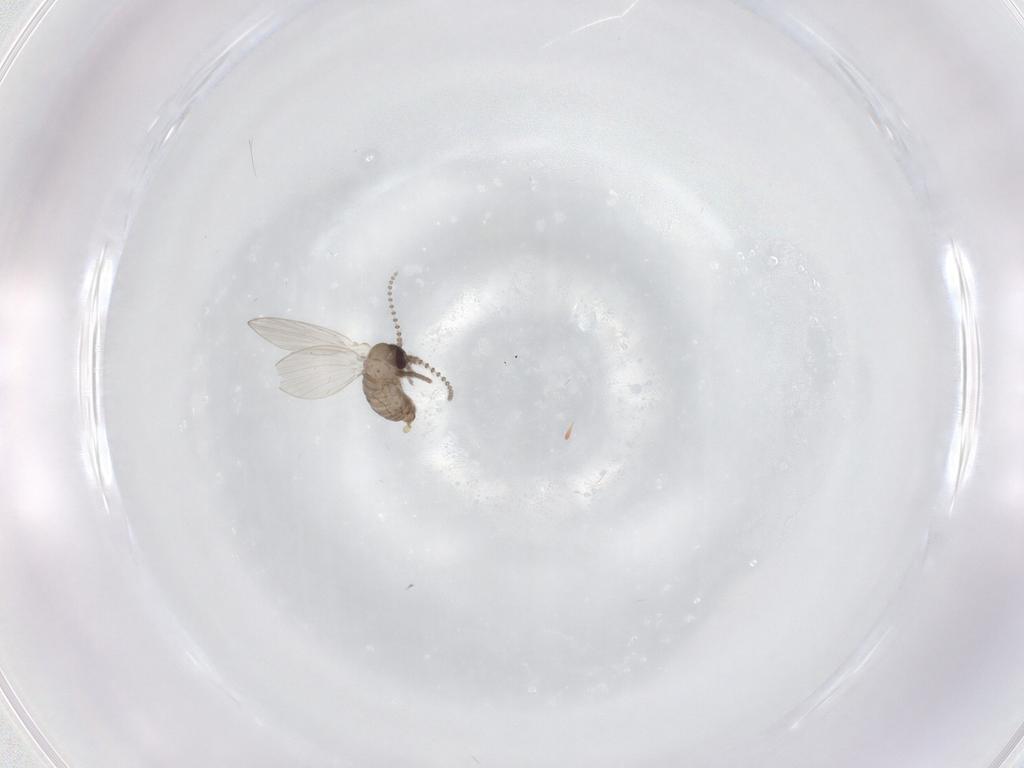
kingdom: Animalia
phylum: Arthropoda
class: Insecta
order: Diptera
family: Psychodidae
